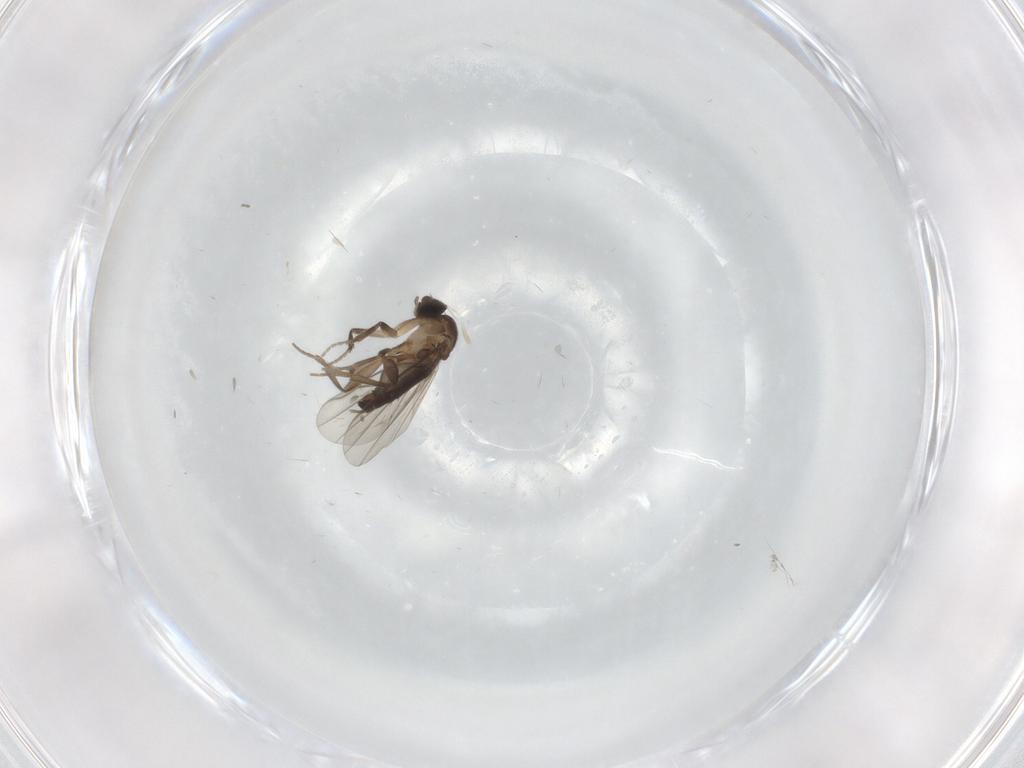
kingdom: Animalia
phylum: Arthropoda
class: Insecta
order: Diptera
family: Phoridae
